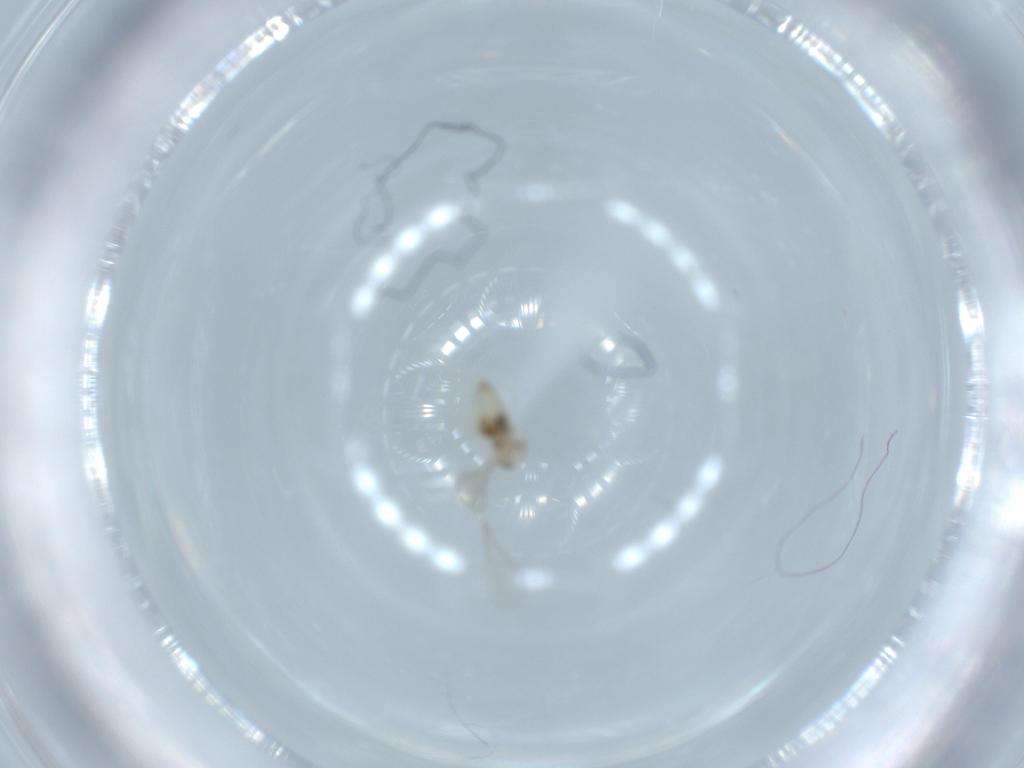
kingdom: Animalia
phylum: Arthropoda
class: Insecta
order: Diptera
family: Cecidomyiidae
